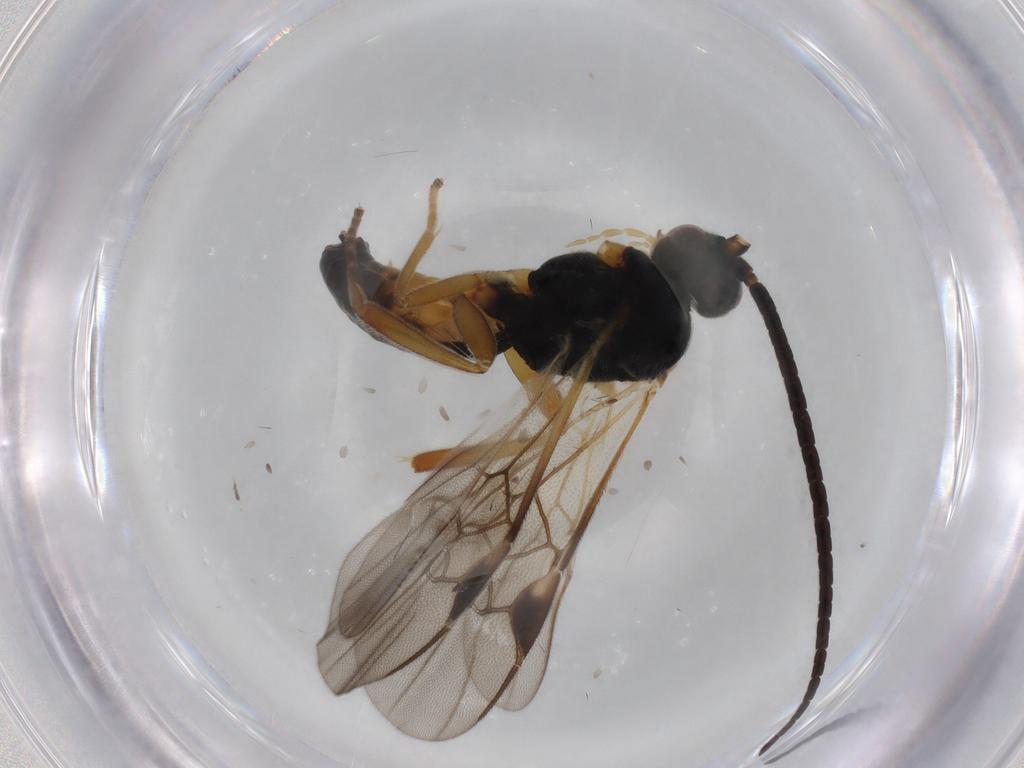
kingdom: Animalia
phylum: Arthropoda
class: Insecta
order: Hymenoptera
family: Braconidae
